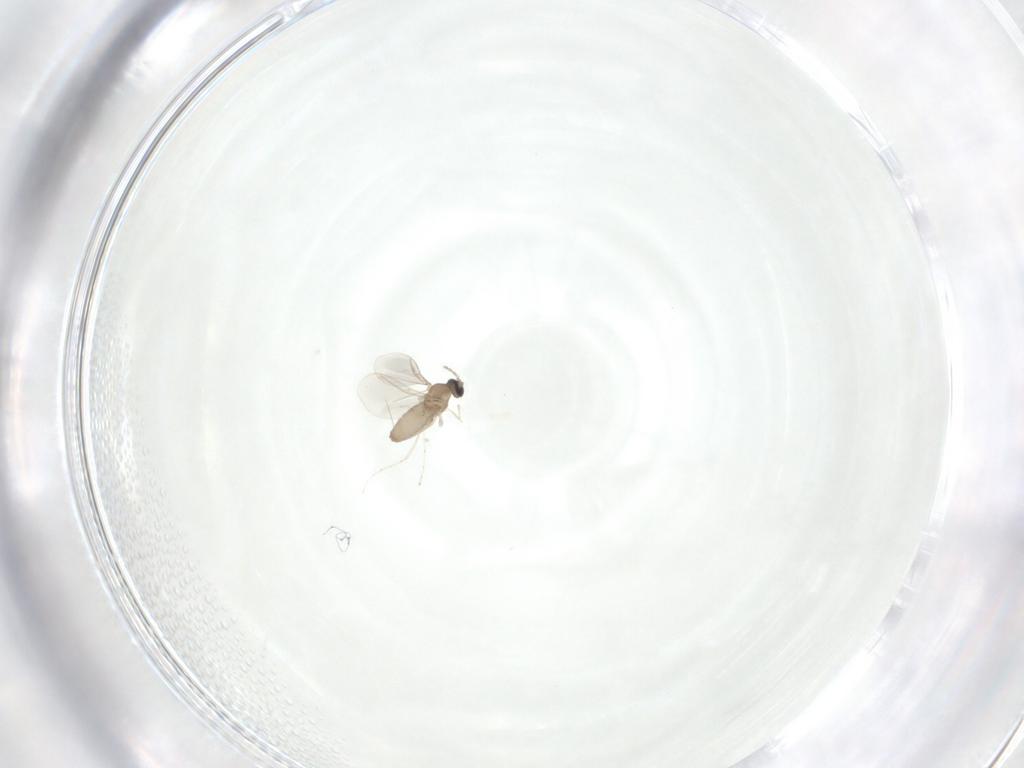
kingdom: Animalia
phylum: Arthropoda
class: Insecta
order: Diptera
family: Cecidomyiidae
